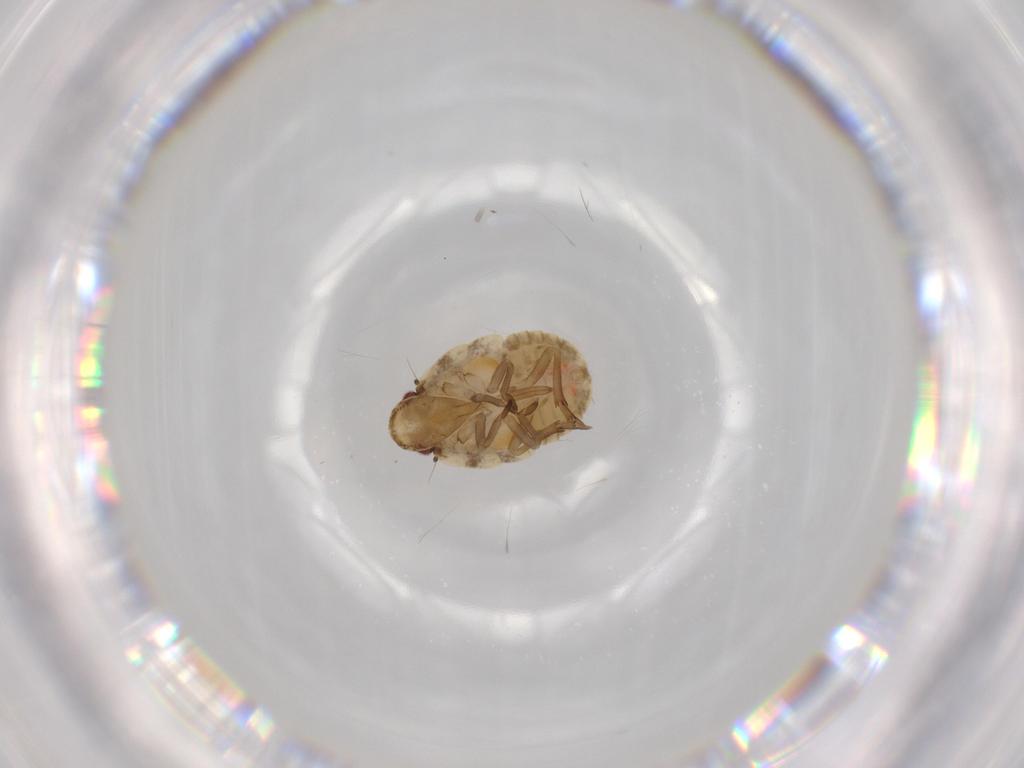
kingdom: Animalia
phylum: Arthropoda
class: Insecta
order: Hemiptera
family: Flatidae
